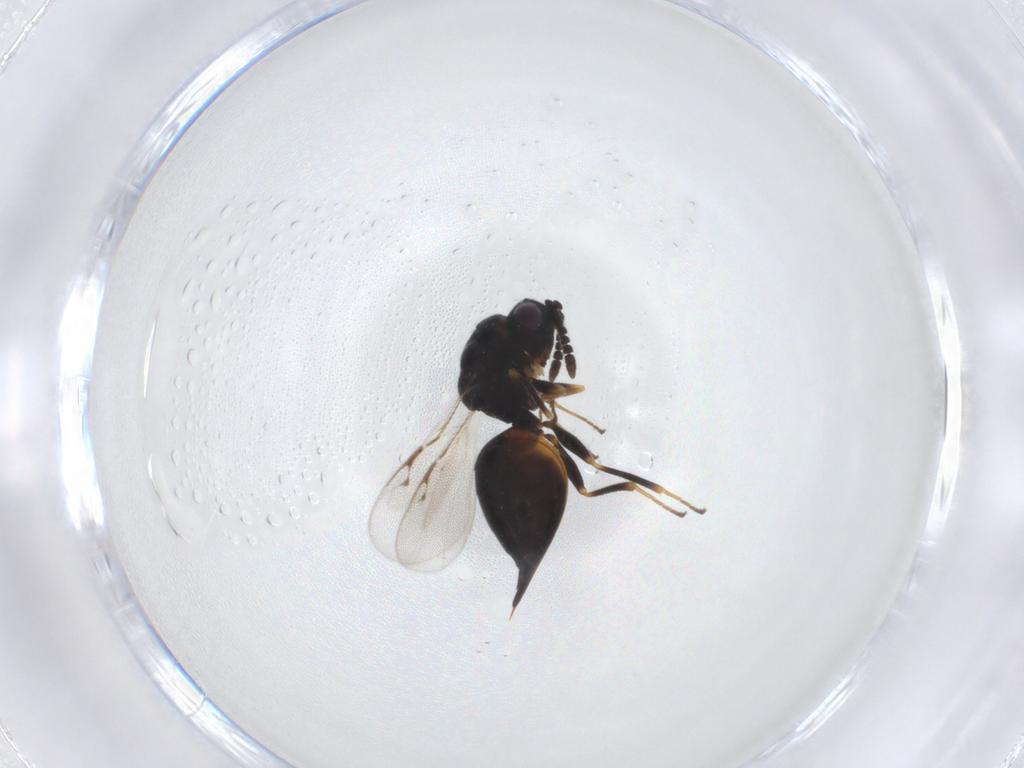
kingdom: Animalia
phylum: Arthropoda
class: Insecta
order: Hymenoptera
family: Eurytomidae
